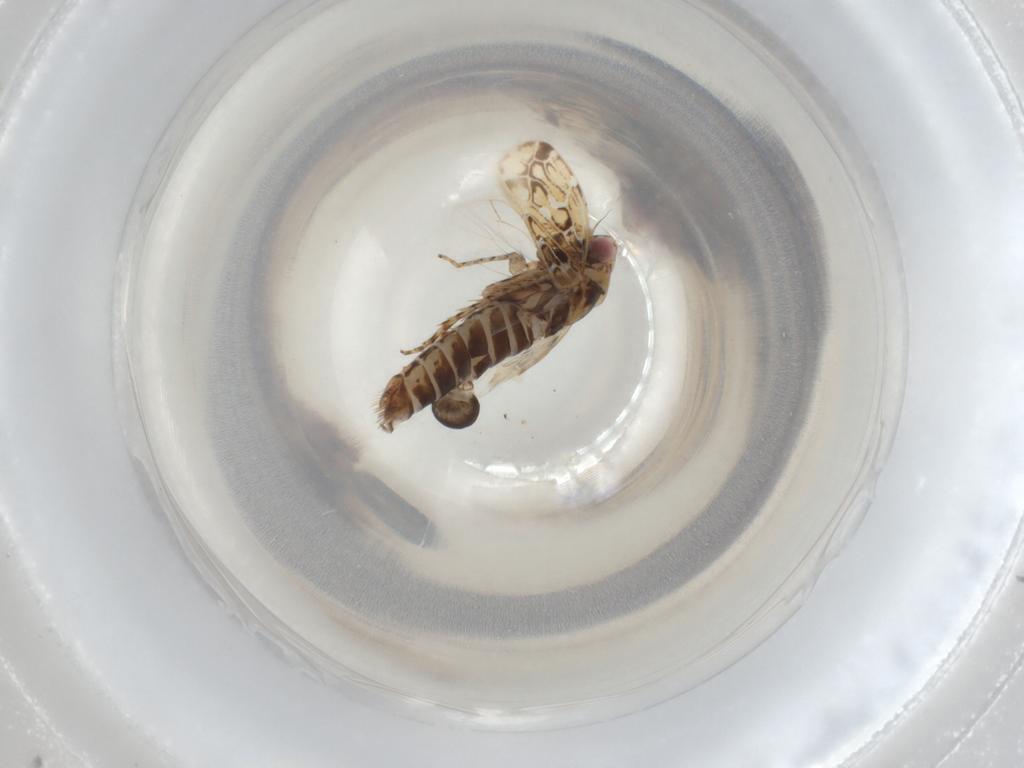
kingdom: Animalia
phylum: Arthropoda
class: Insecta
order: Hemiptera
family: Cicadellidae
